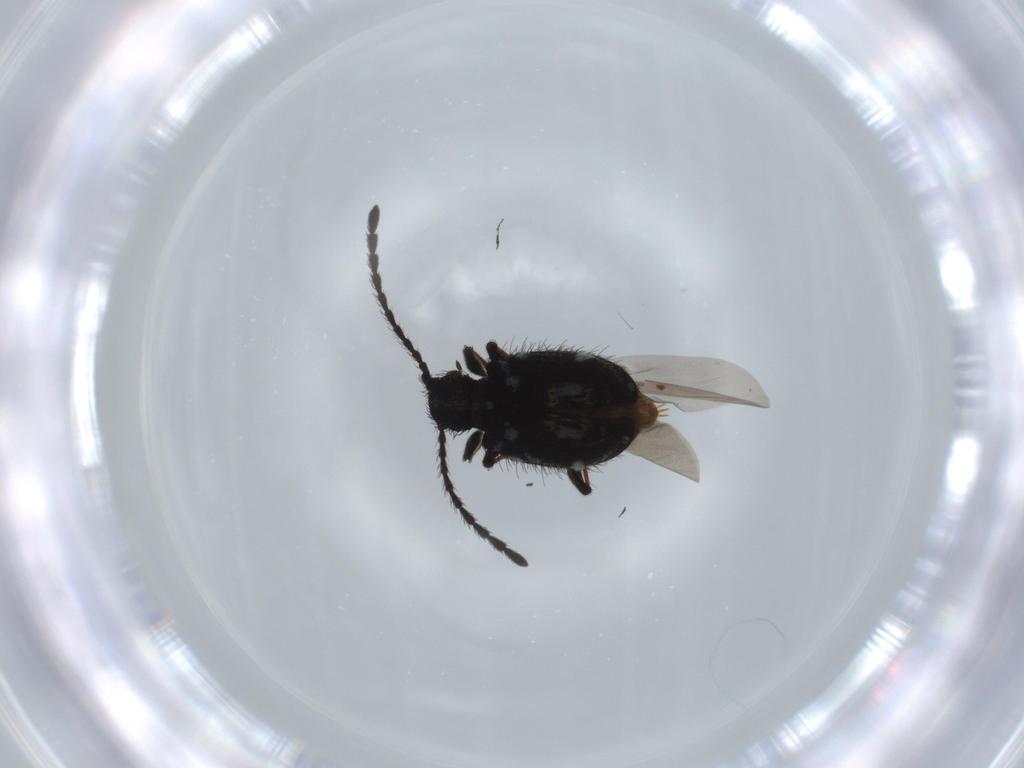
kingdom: Animalia
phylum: Arthropoda
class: Insecta
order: Coleoptera
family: Ptinidae
